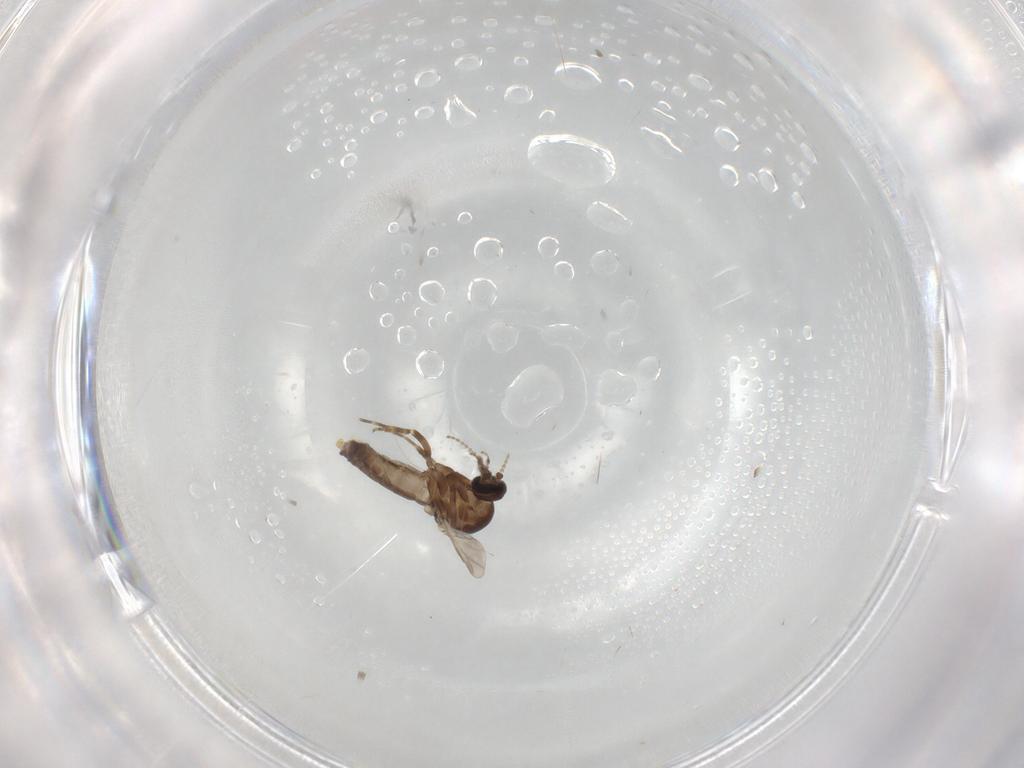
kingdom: Animalia
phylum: Arthropoda
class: Insecta
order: Diptera
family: Ceratopogonidae
